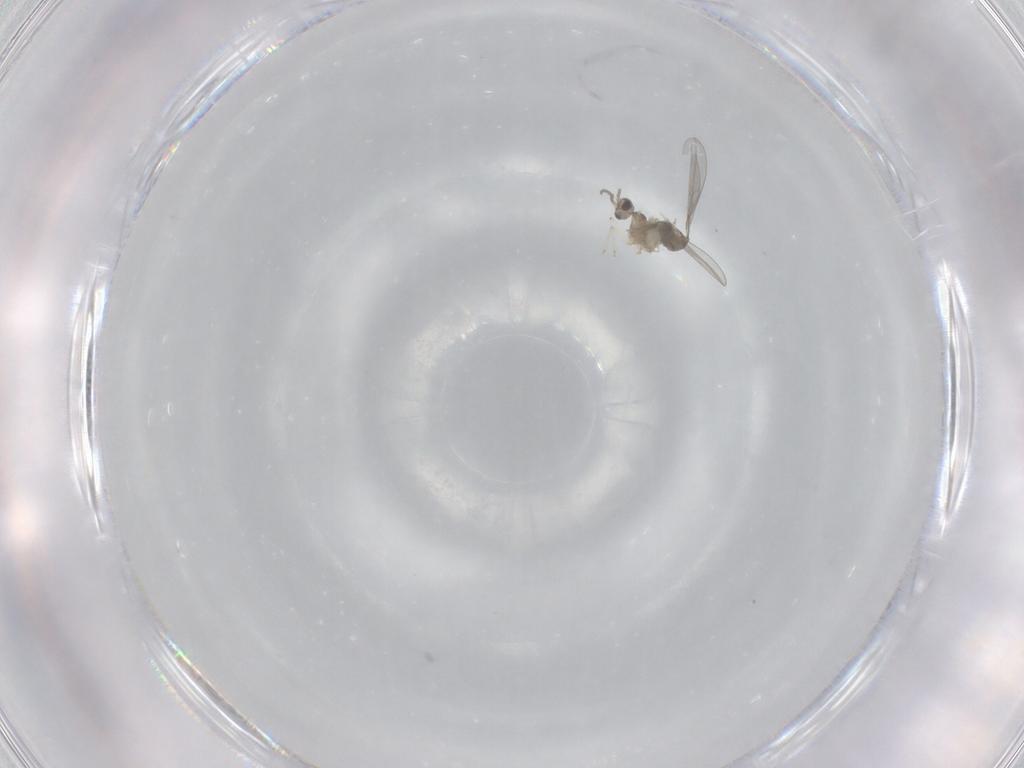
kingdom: Animalia
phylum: Arthropoda
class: Insecta
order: Diptera
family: Cecidomyiidae
